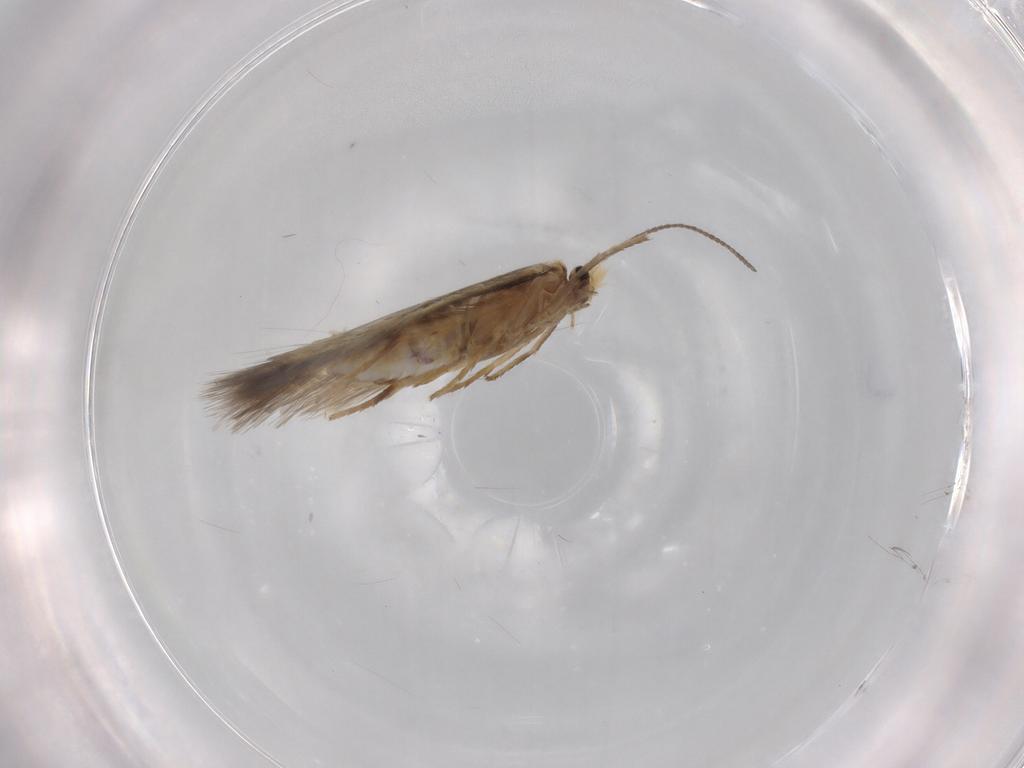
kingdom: Animalia
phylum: Arthropoda
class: Insecta
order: Lepidoptera
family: Nepticulidae
